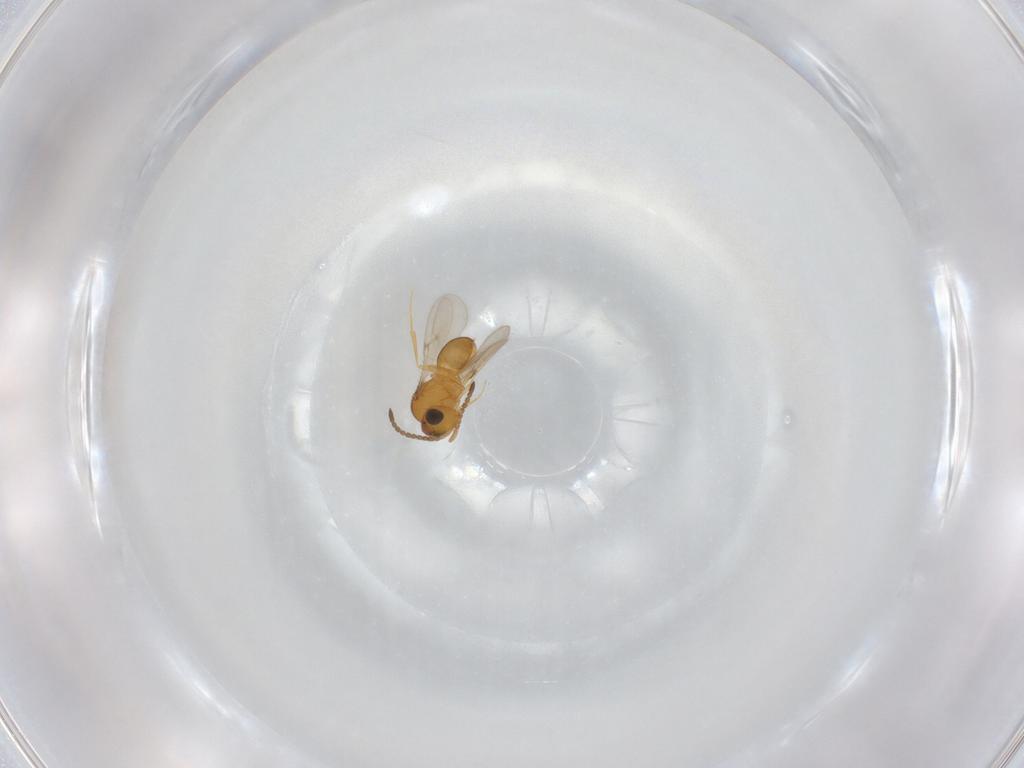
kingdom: Animalia
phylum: Arthropoda
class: Insecta
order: Hymenoptera
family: Scelionidae
